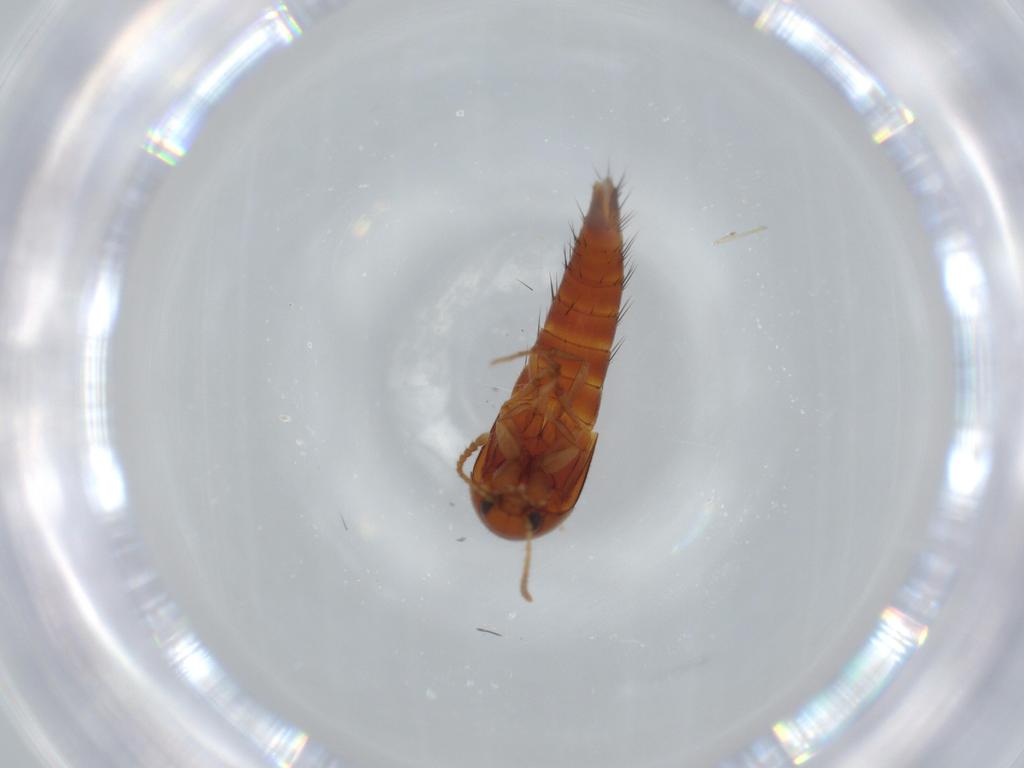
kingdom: Animalia
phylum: Arthropoda
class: Insecta
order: Coleoptera
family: Staphylinidae
